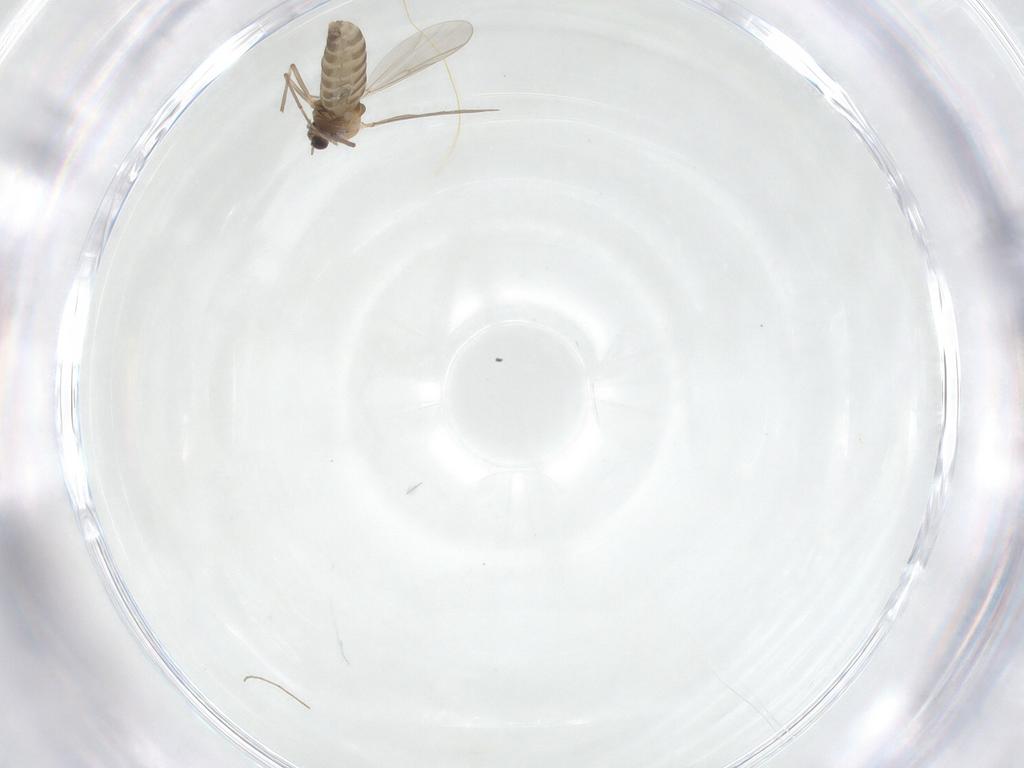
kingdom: Animalia
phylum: Arthropoda
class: Insecta
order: Diptera
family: Chironomidae
